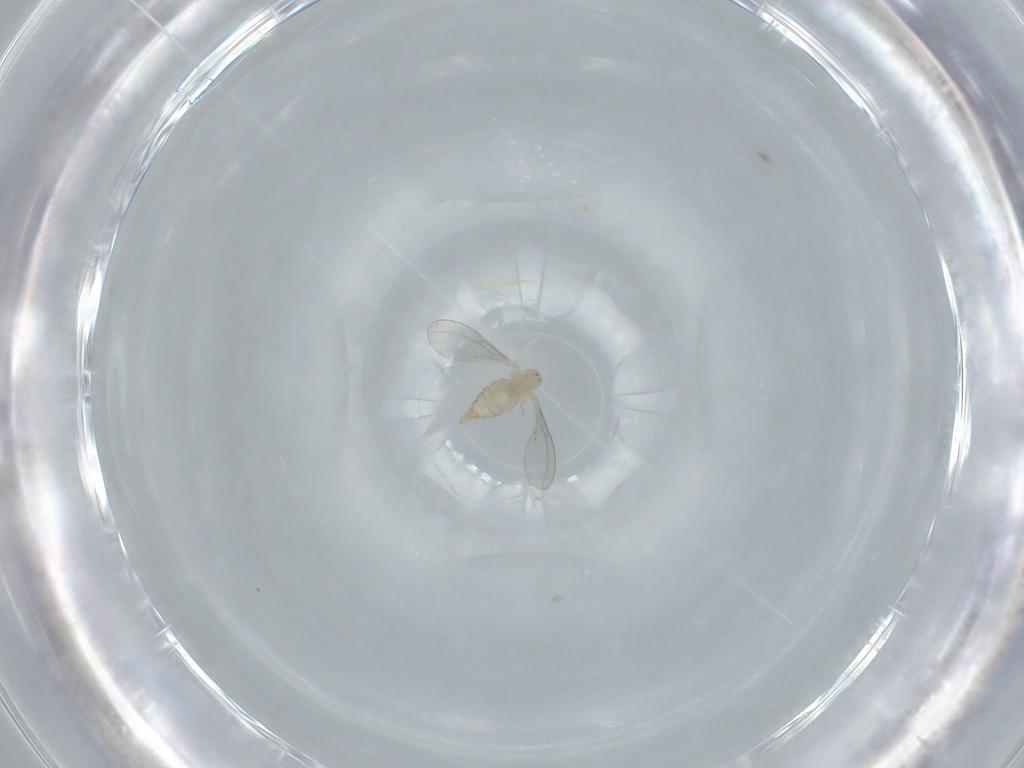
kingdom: Animalia
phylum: Arthropoda
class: Insecta
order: Diptera
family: Cecidomyiidae
